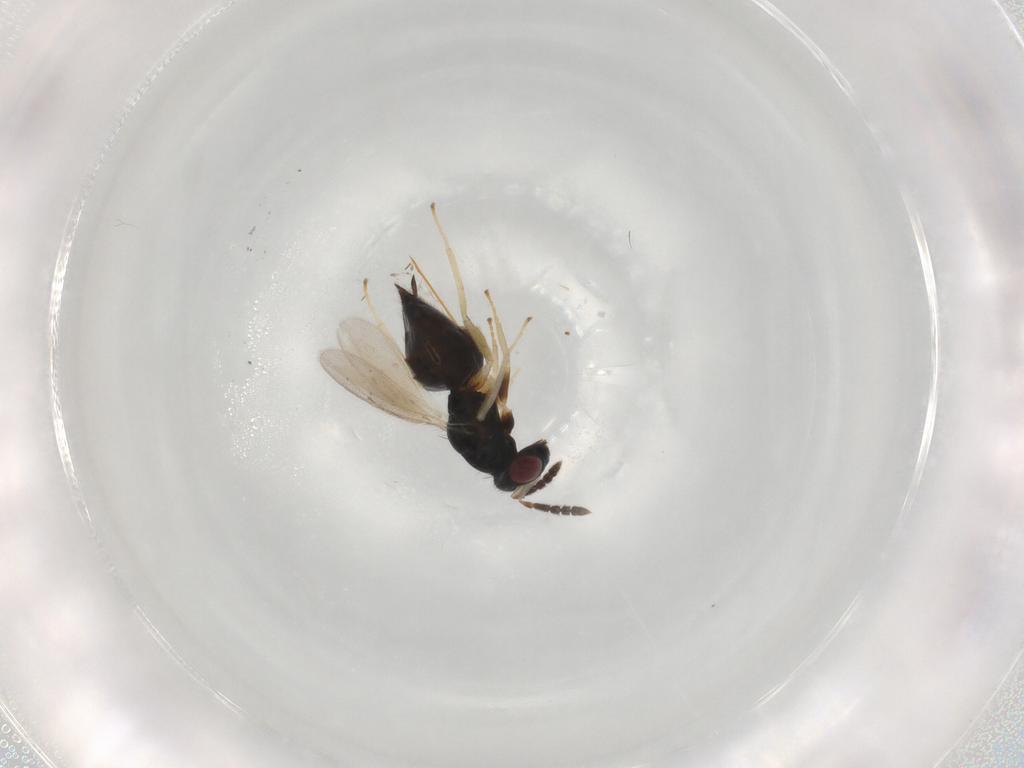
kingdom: Animalia
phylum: Arthropoda
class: Insecta
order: Hymenoptera
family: Eulophidae
